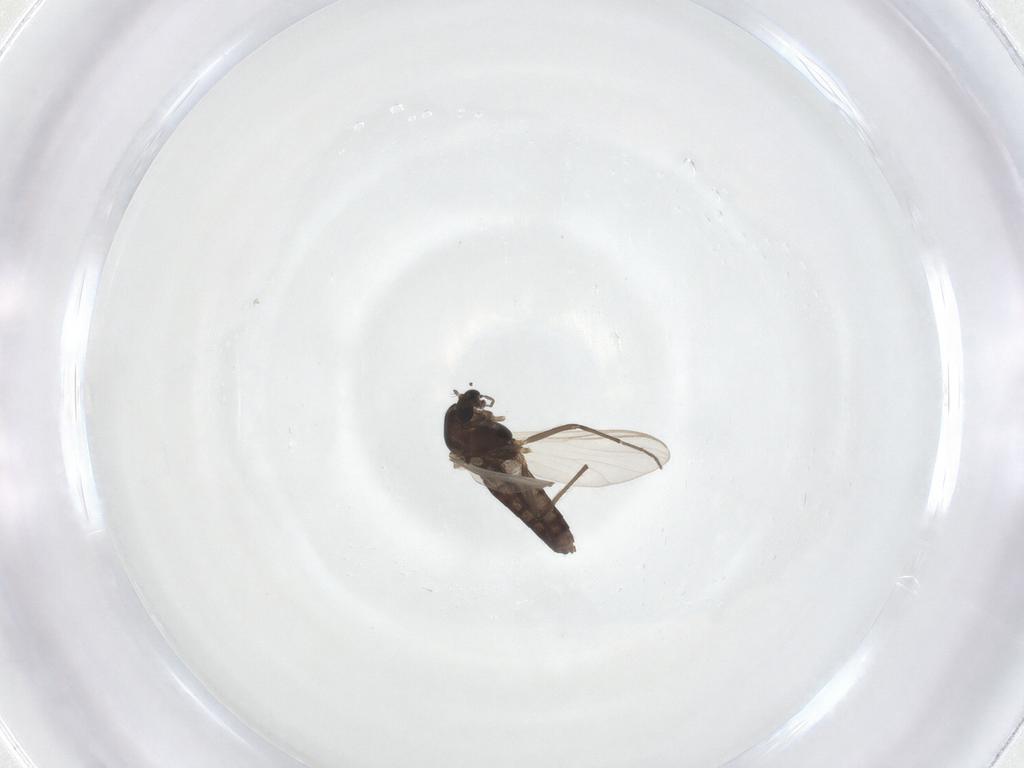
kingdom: Animalia
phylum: Arthropoda
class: Insecta
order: Diptera
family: Chironomidae
